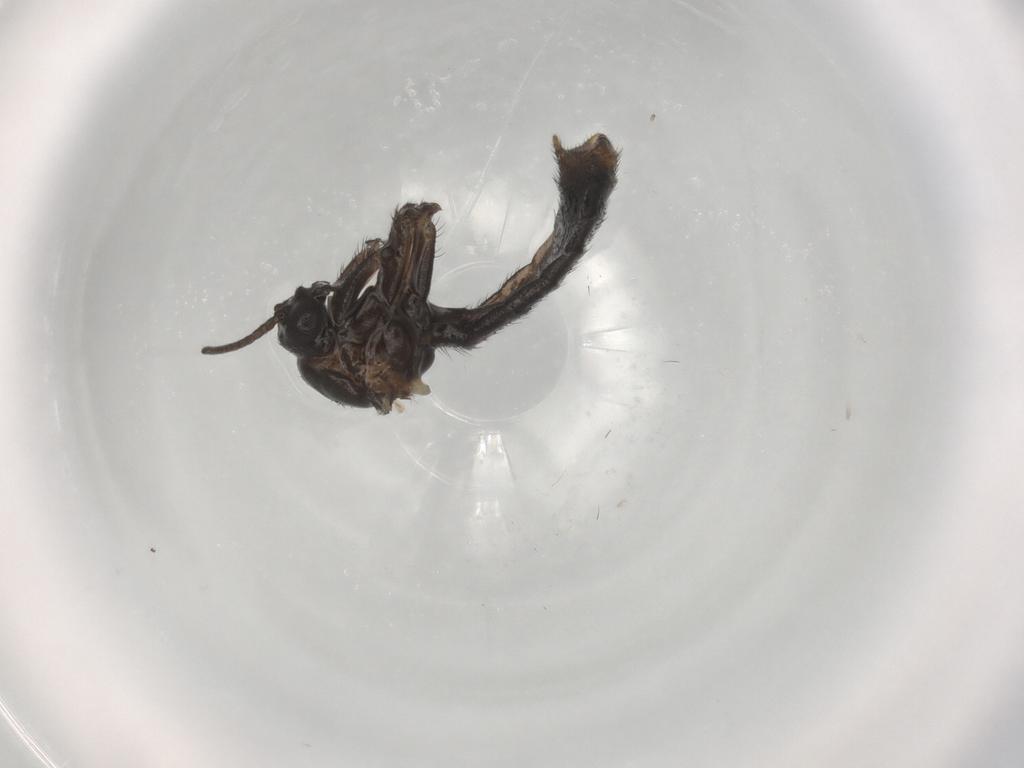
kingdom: Animalia
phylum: Arthropoda
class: Insecta
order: Diptera
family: Keroplatidae
